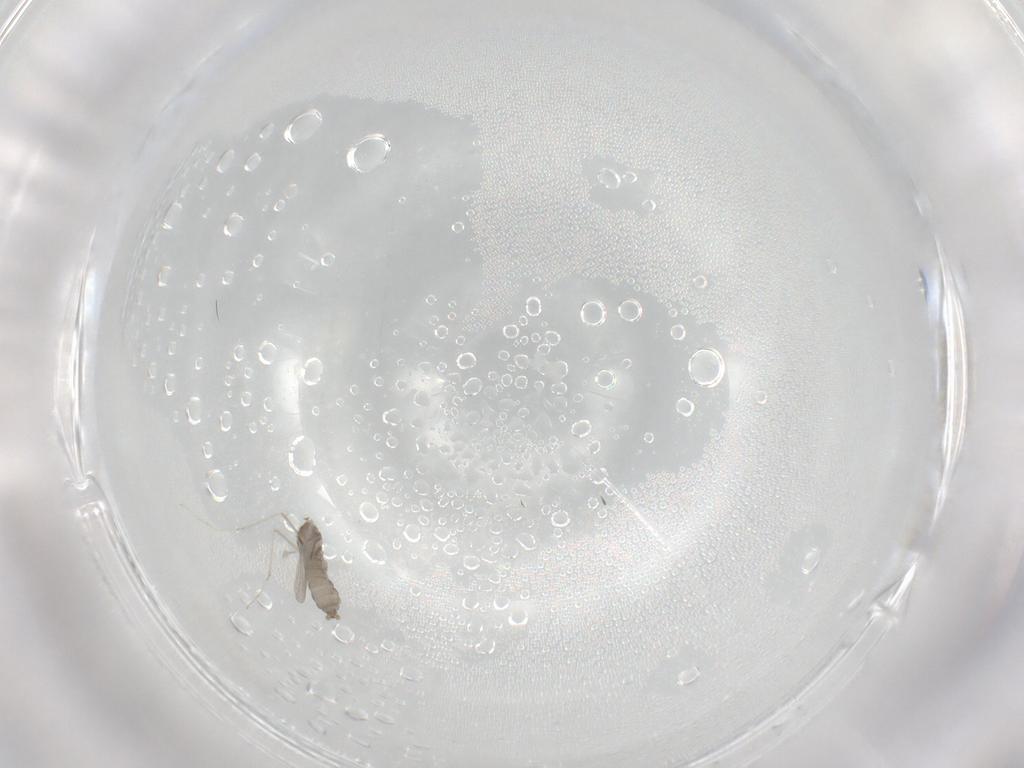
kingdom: Animalia
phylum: Arthropoda
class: Insecta
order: Diptera
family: Cecidomyiidae
